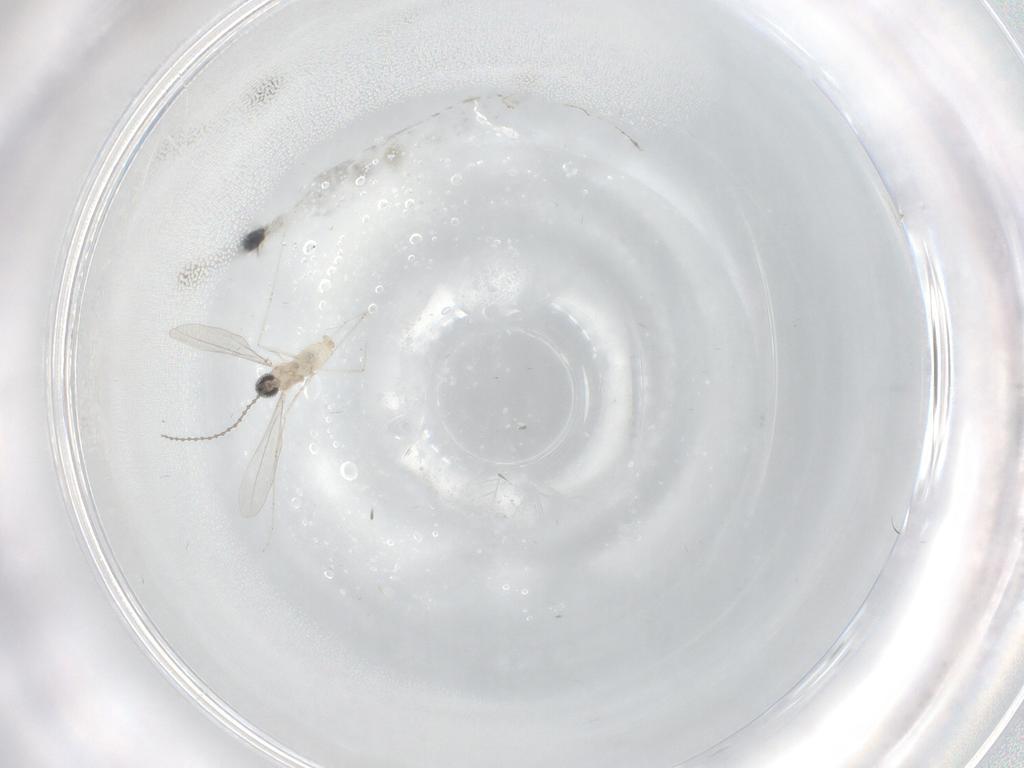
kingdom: Animalia
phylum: Arthropoda
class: Insecta
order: Diptera
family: Cecidomyiidae
